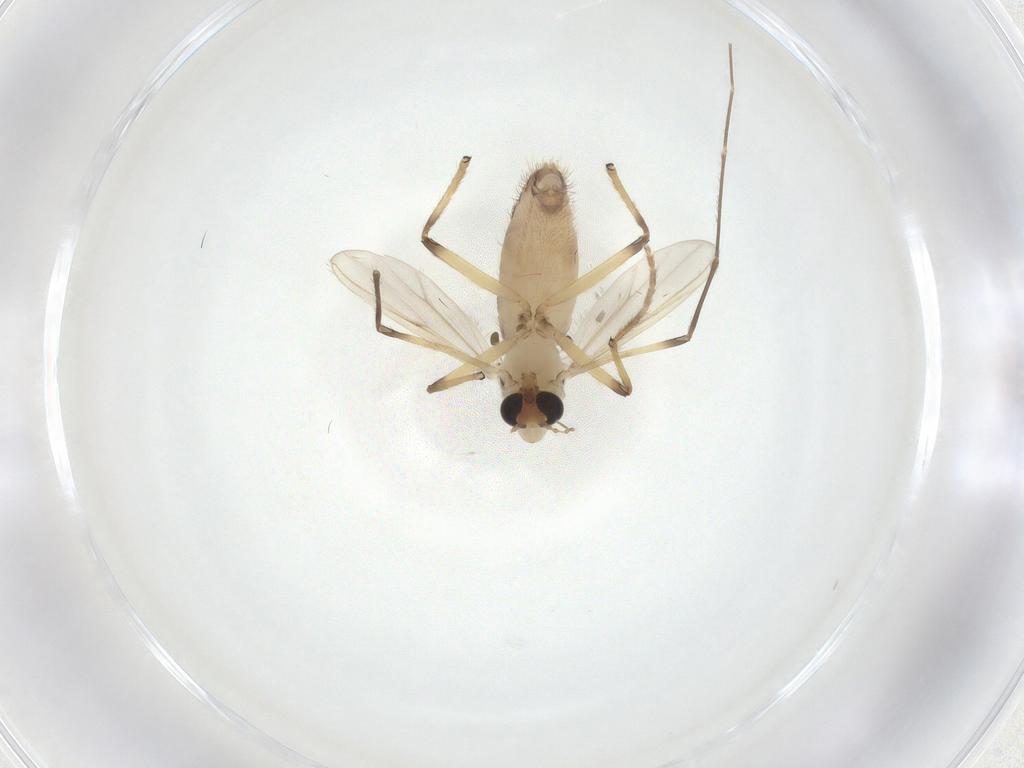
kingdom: Animalia
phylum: Arthropoda
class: Insecta
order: Diptera
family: Chironomidae
